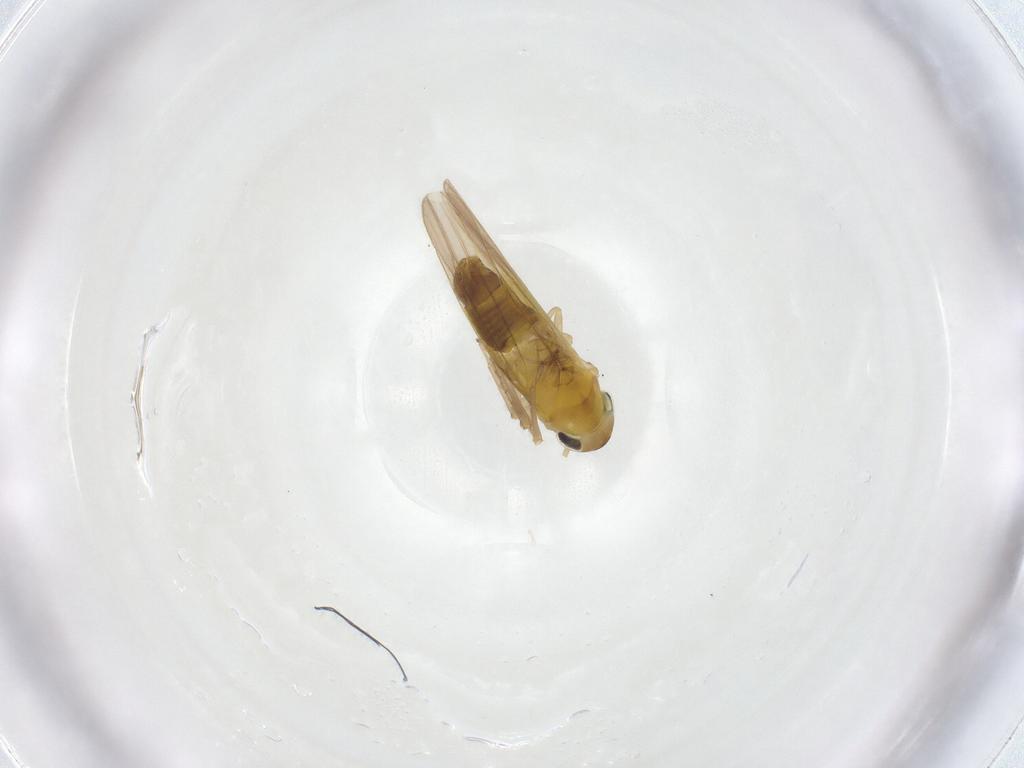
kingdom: Animalia
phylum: Arthropoda
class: Insecta
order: Hemiptera
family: Cicadellidae
